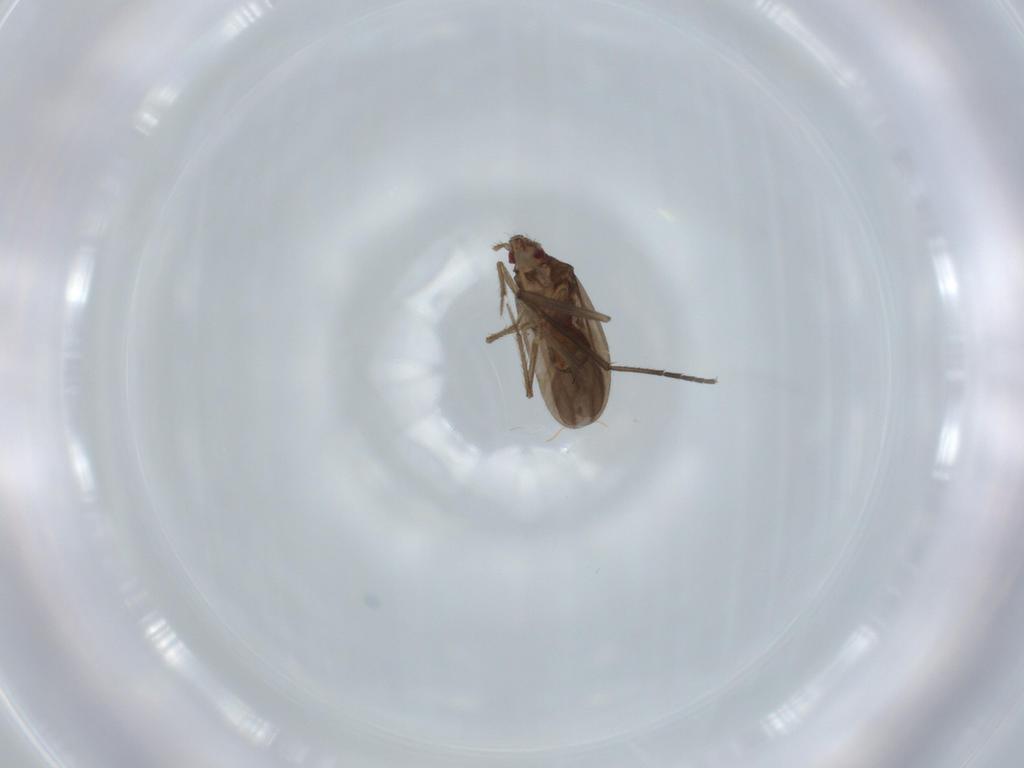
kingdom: Animalia
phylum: Arthropoda
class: Insecta
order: Hemiptera
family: Ceratocombidae
